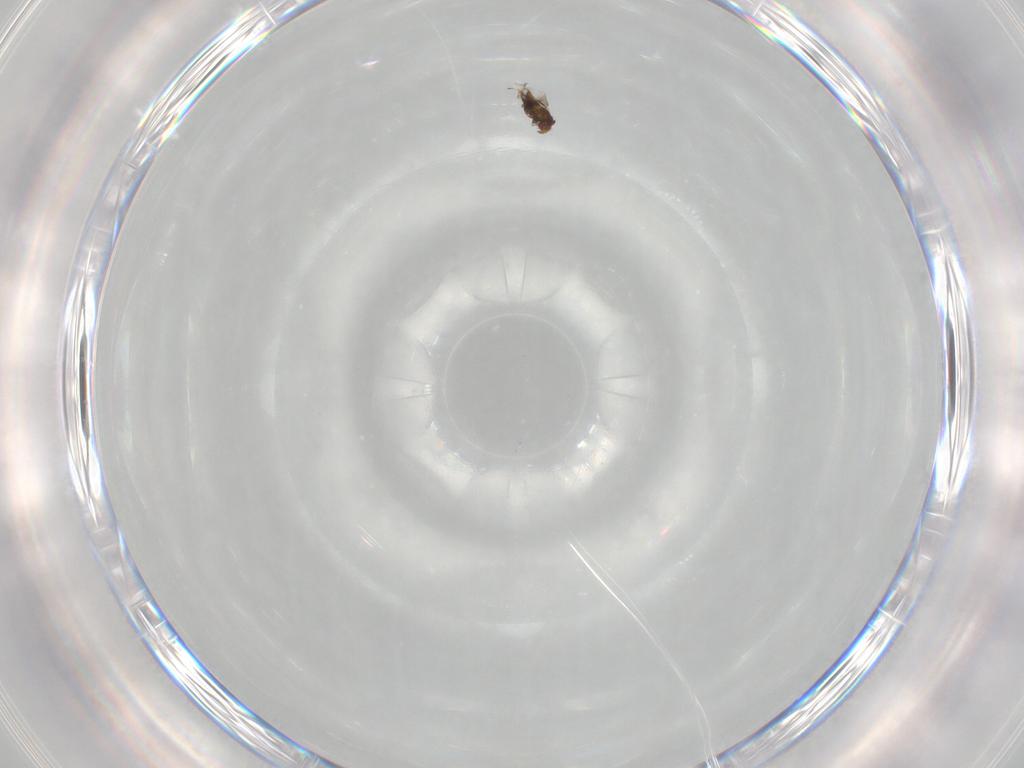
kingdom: Animalia
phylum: Arthropoda
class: Insecta
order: Hymenoptera
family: Trichogrammatidae
